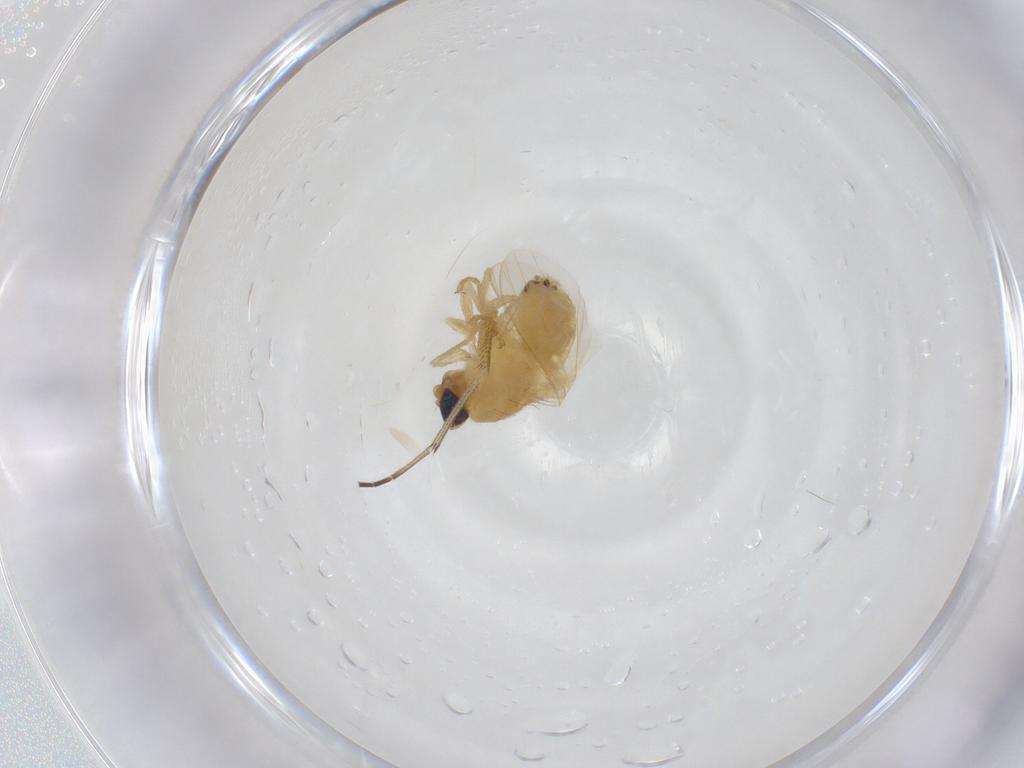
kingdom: Animalia
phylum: Arthropoda
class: Insecta
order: Diptera
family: Chyromyidae
